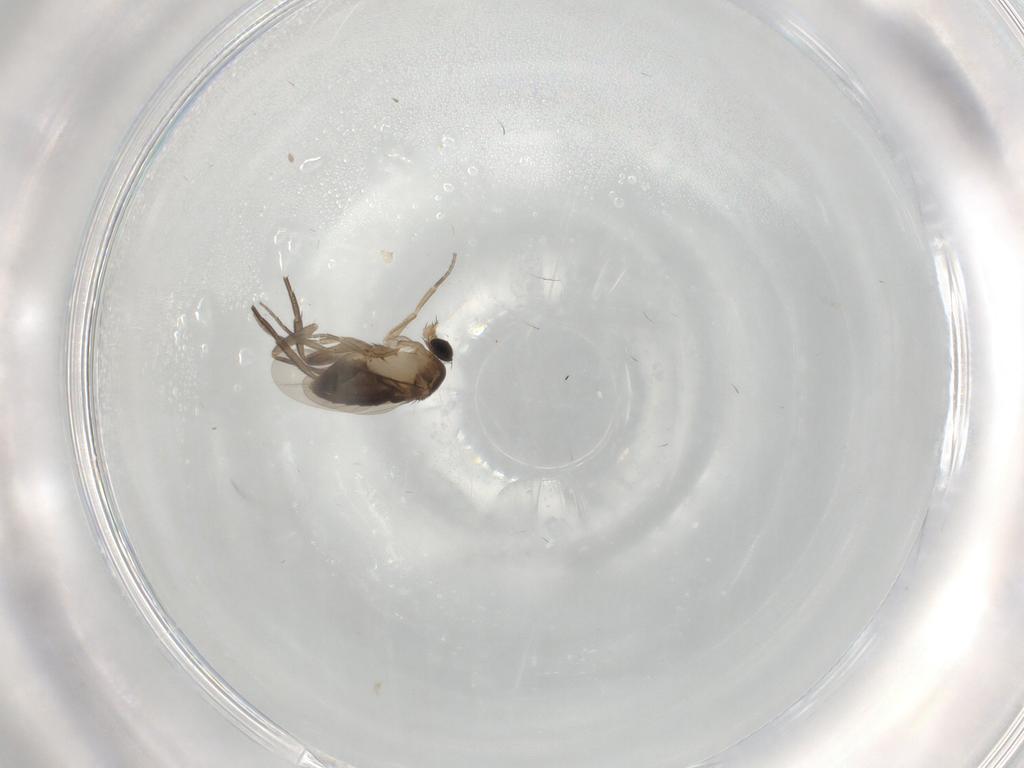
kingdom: Animalia
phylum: Arthropoda
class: Insecta
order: Diptera
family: Phoridae
